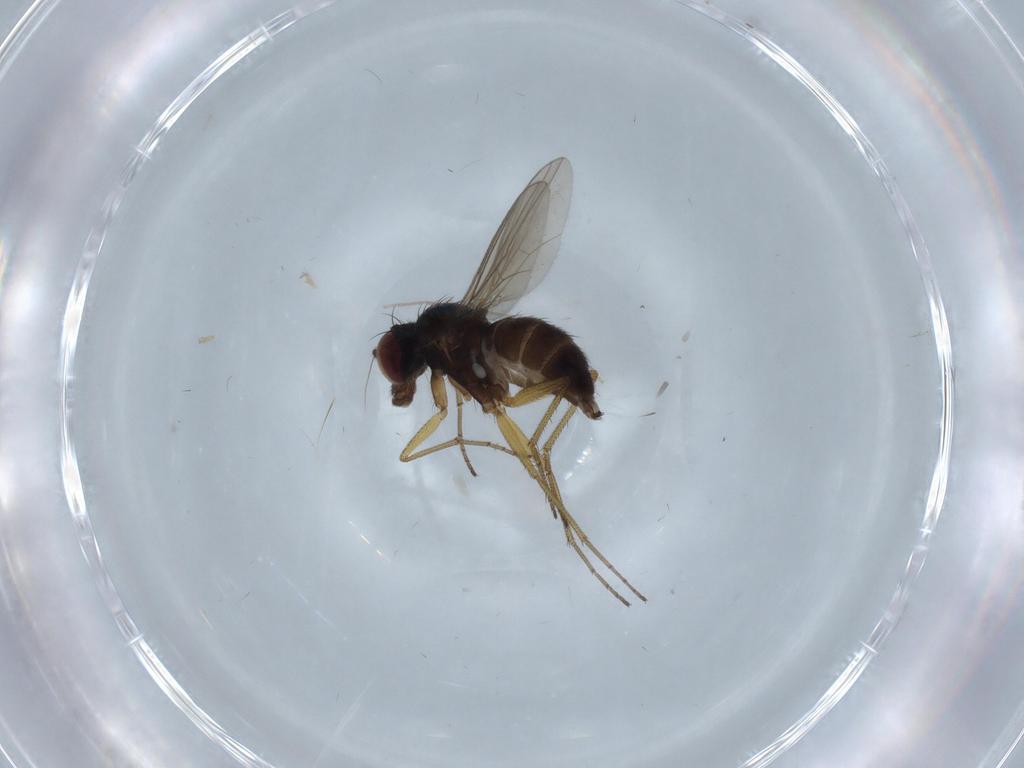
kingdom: Animalia
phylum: Arthropoda
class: Insecta
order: Diptera
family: Dolichopodidae
